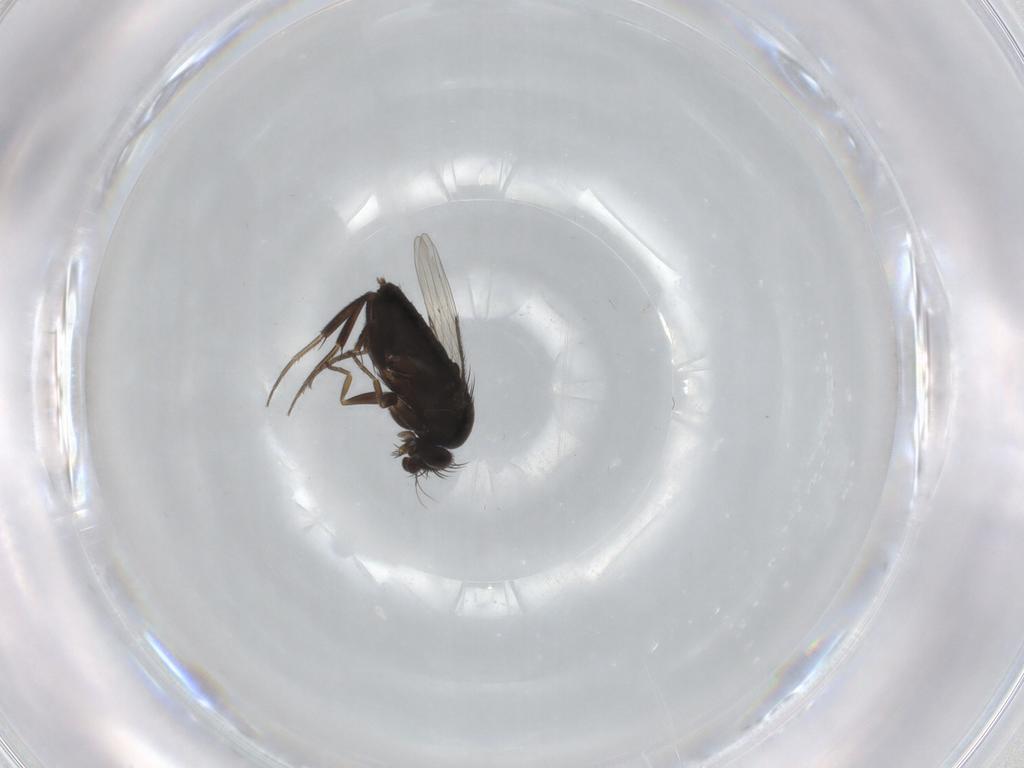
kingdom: Animalia
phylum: Arthropoda
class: Insecta
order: Diptera
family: Phoridae
